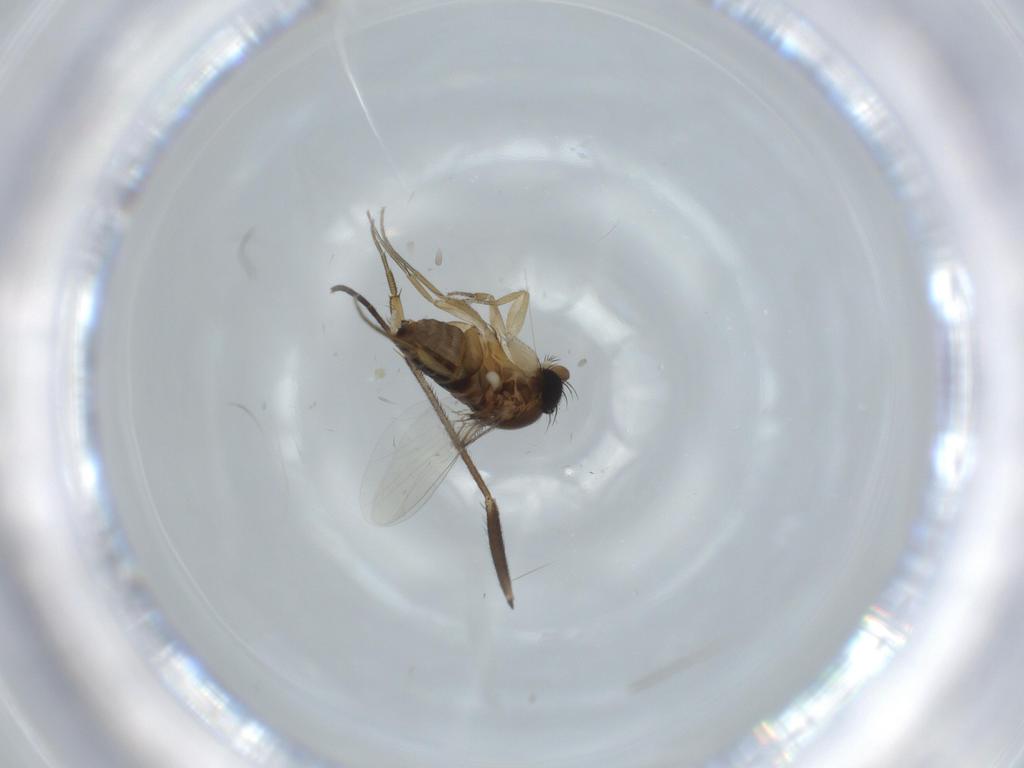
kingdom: Animalia
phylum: Arthropoda
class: Insecta
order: Diptera
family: Phoridae
